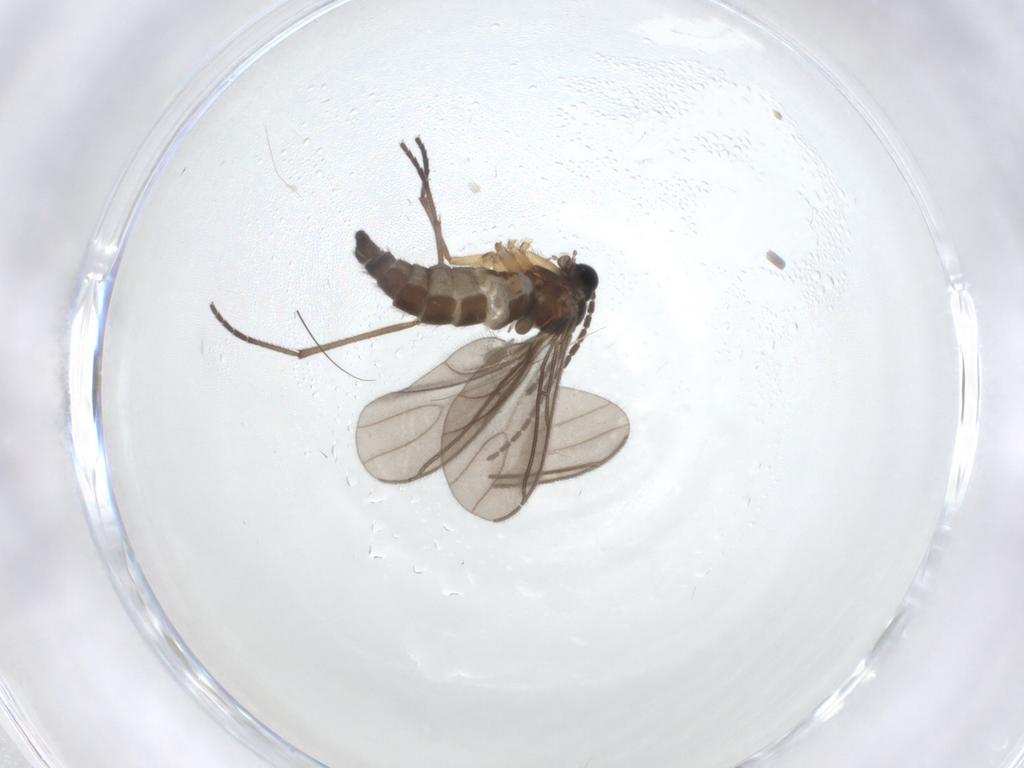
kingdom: Animalia
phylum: Arthropoda
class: Insecta
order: Diptera
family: Sciaridae
